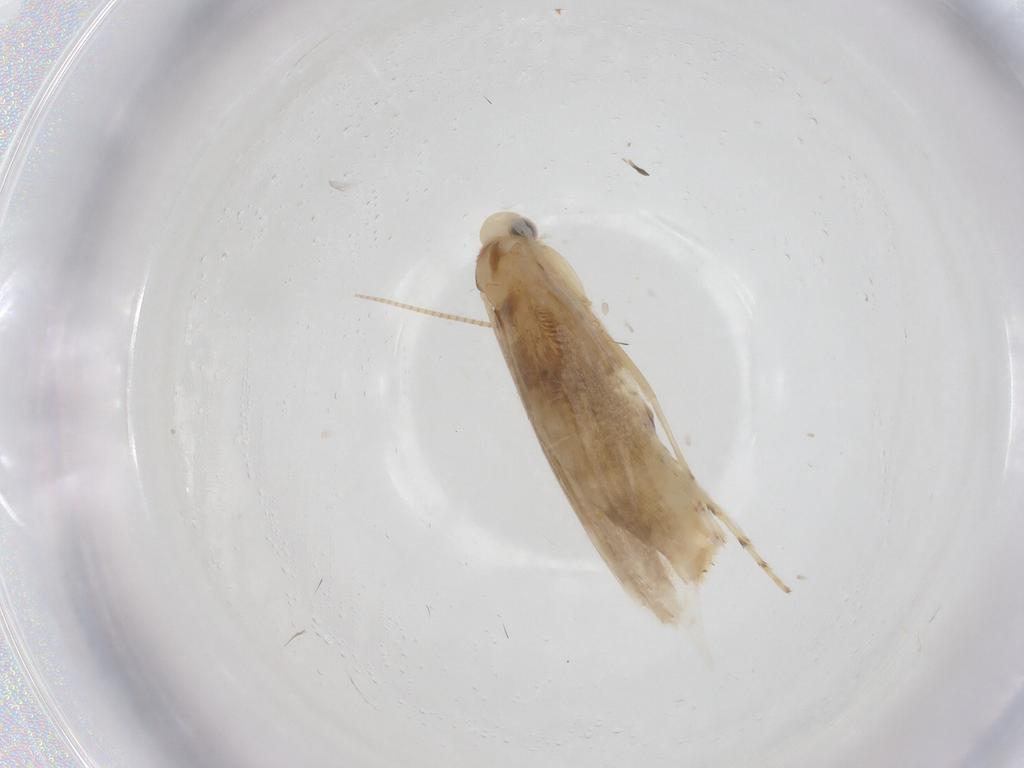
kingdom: Animalia
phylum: Arthropoda
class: Insecta
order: Lepidoptera
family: Gracillariidae
